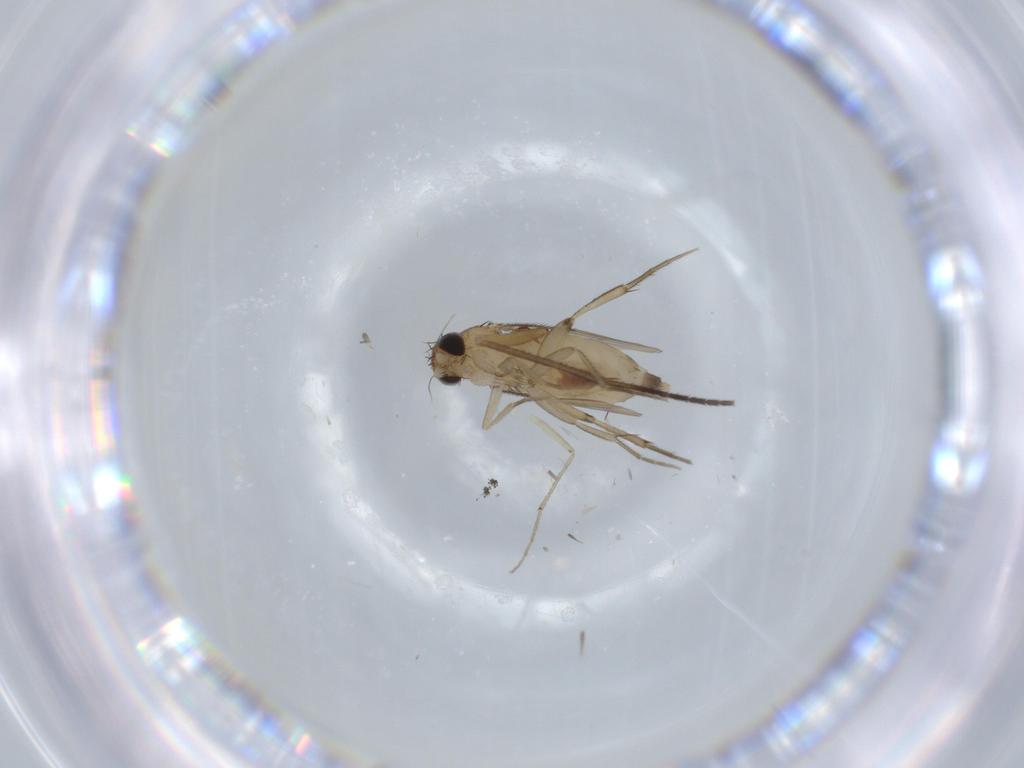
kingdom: Animalia
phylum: Arthropoda
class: Insecta
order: Diptera
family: Phoridae
